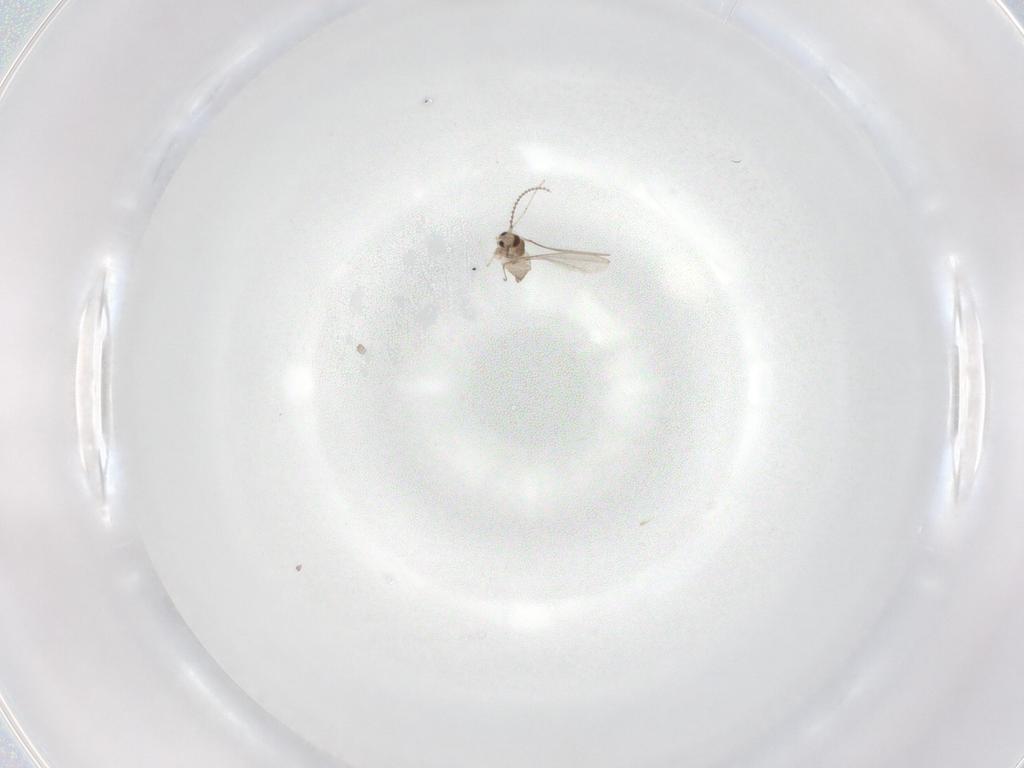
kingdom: Animalia
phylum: Arthropoda
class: Insecta
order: Diptera
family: Cecidomyiidae
